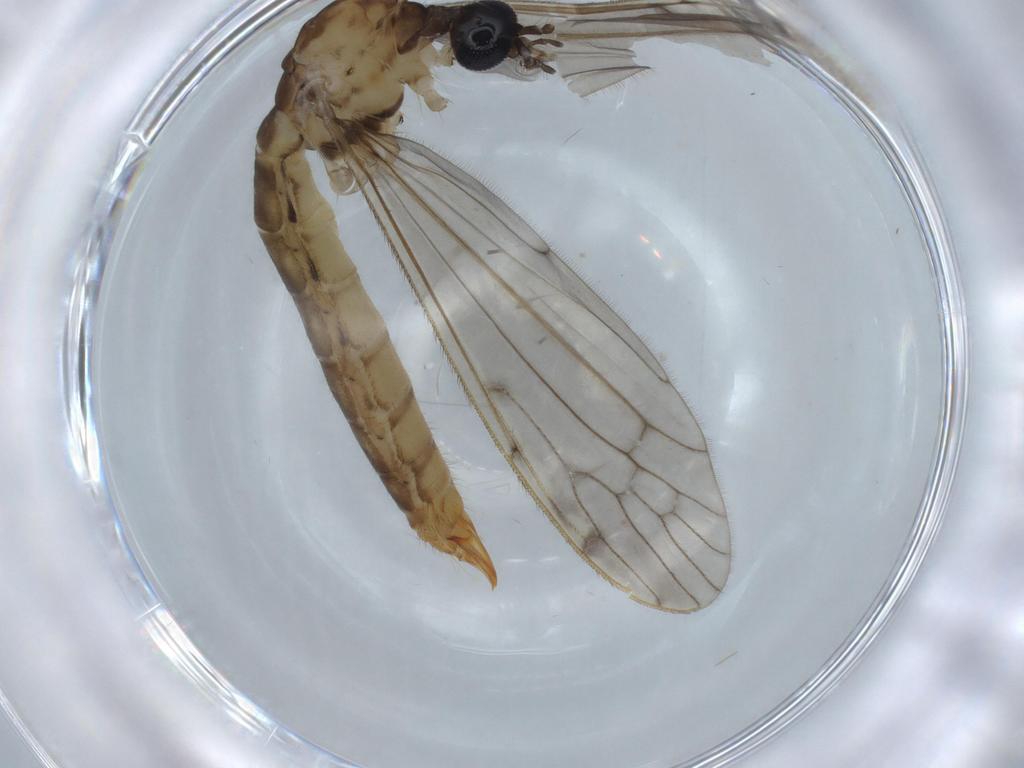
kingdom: Animalia
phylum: Arthropoda
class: Insecta
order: Diptera
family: Limoniidae
